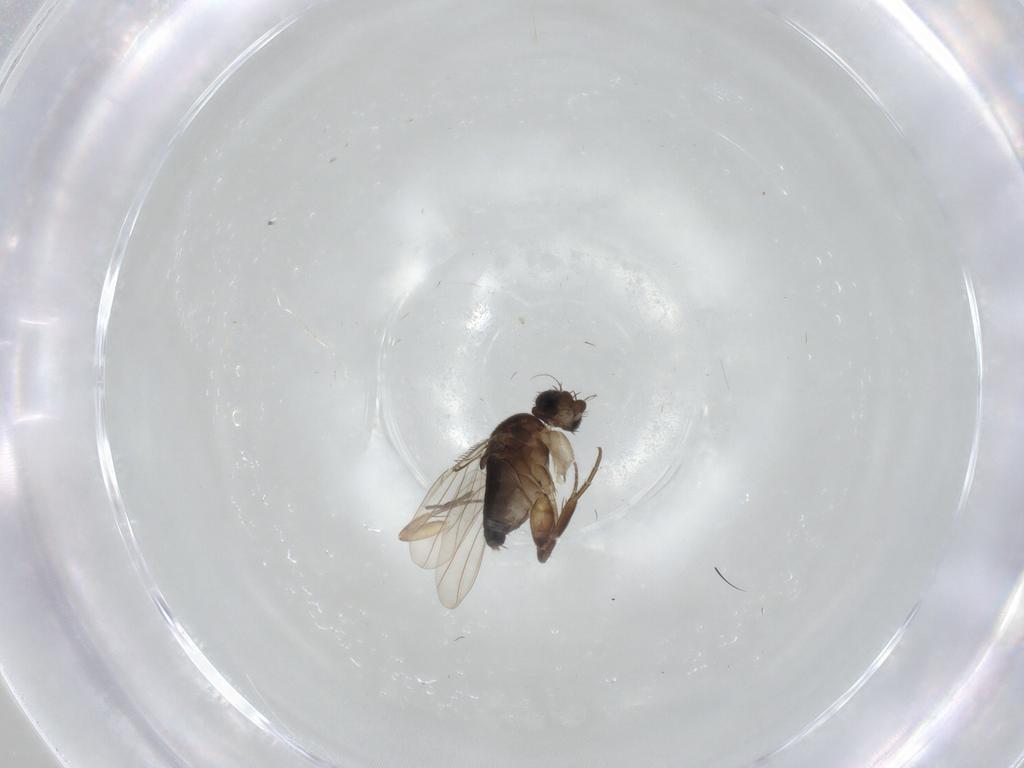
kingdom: Animalia
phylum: Arthropoda
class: Insecta
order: Diptera
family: Phoridae
